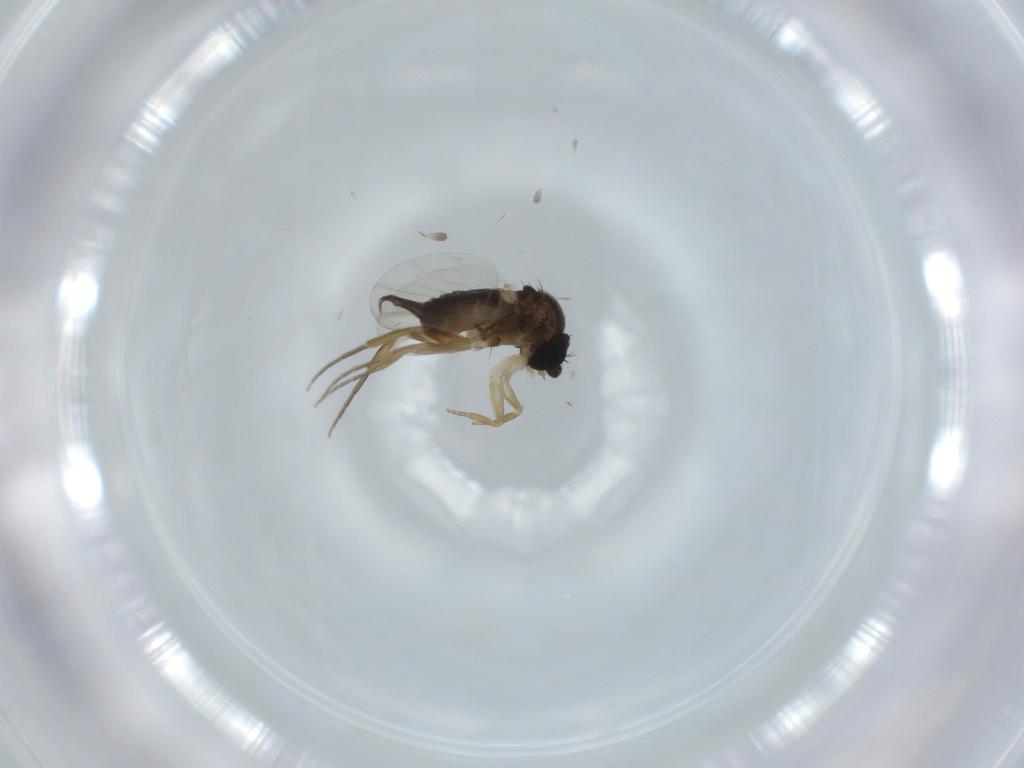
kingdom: Animalia
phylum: Arthropoda
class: Insecta
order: Diptera
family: Phoridae
